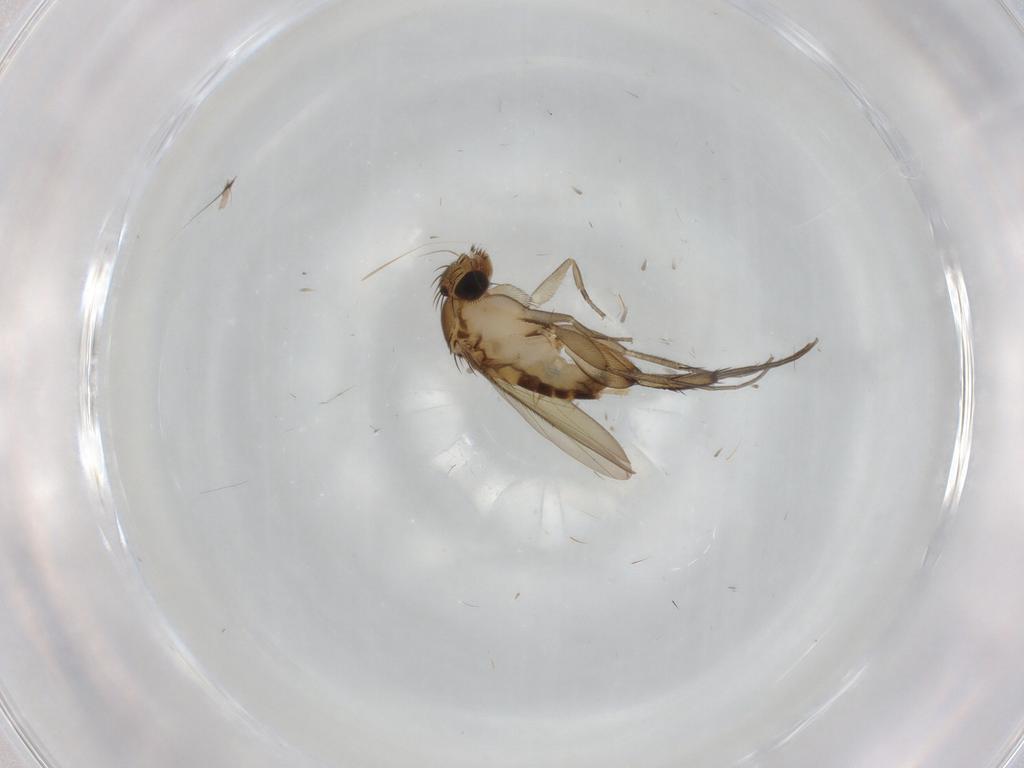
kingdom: Animalia
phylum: Arthropoda
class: Insecta
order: Diptera
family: Phoridae
